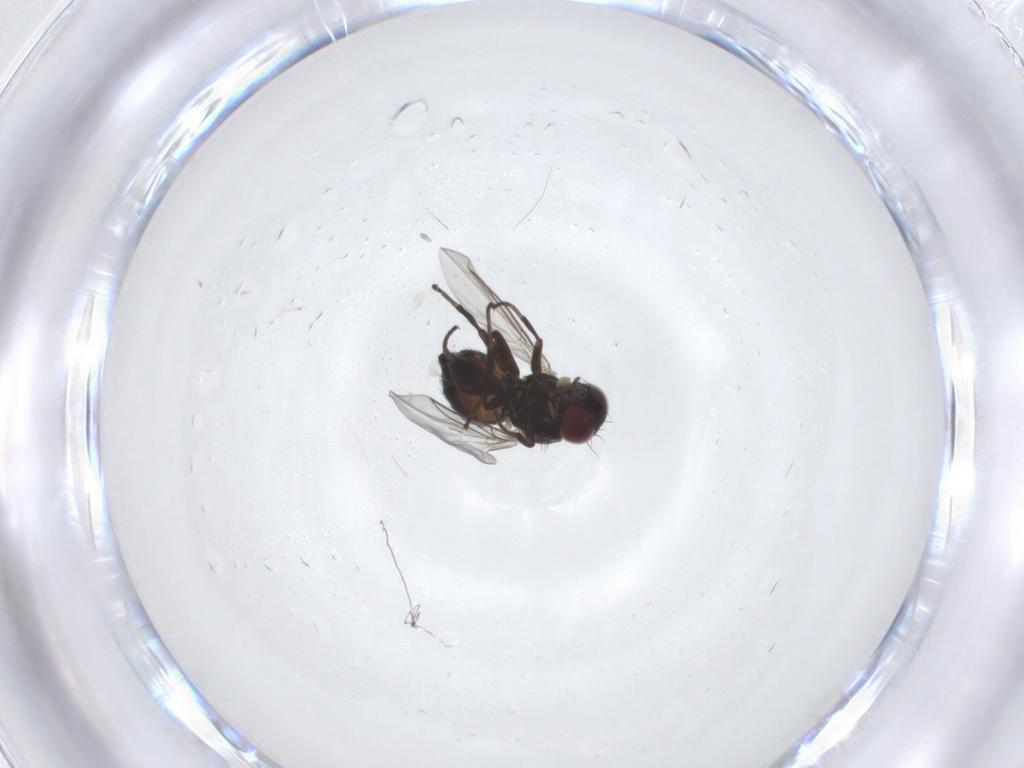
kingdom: Animalia
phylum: Arthropoda
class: Insecta
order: Diptera
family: Agromyzidae
